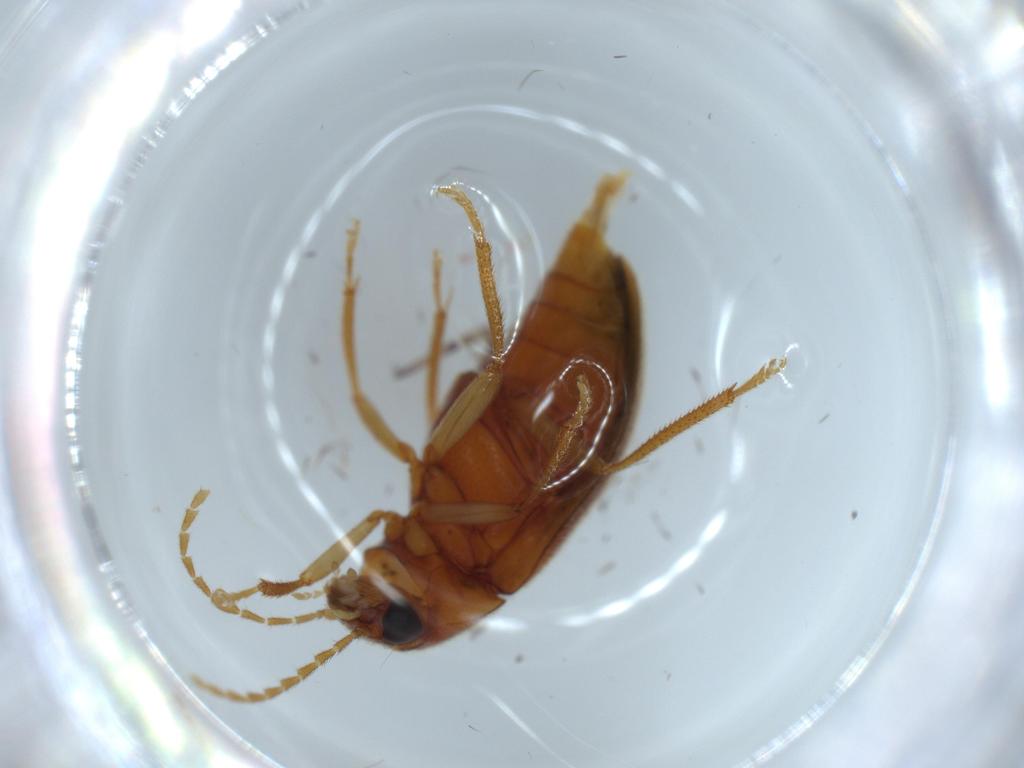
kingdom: Animalia
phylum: Arthropoda
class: Insecta
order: Coleoptera
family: Ptilodactylidae
